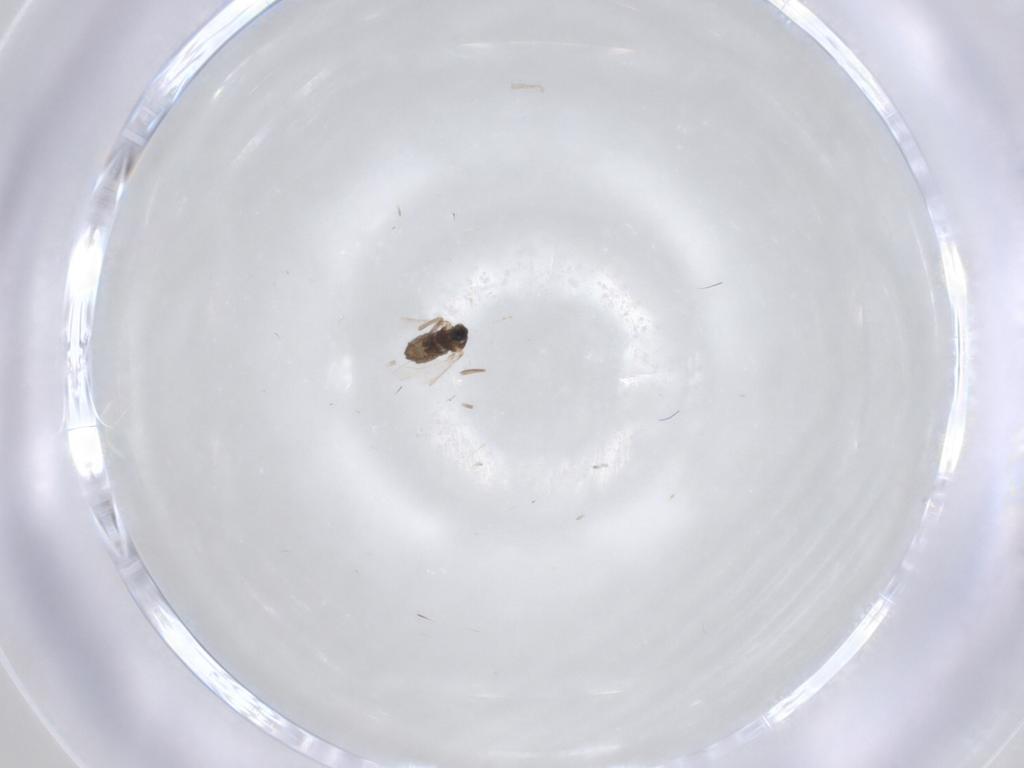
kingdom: Animalia
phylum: Arthropoda
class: Insecta
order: Diptera
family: Cecidomyiidae
